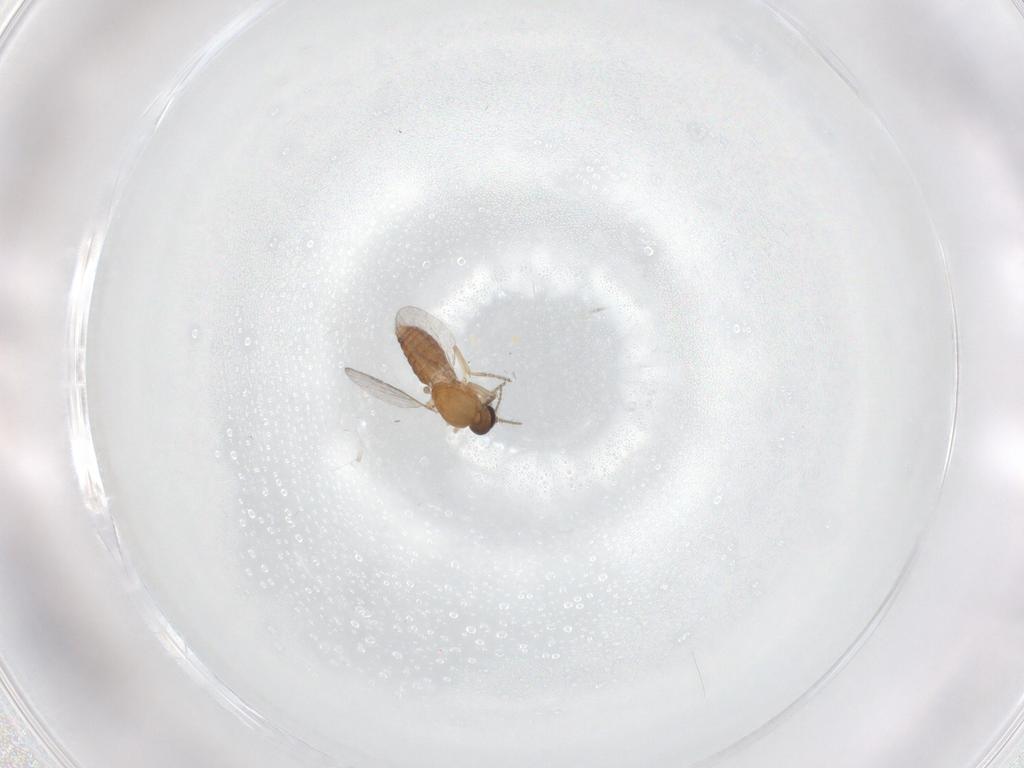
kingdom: Animalia
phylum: Arthropoda
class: Insecta
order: Diptera
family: Ceratopogonidae
